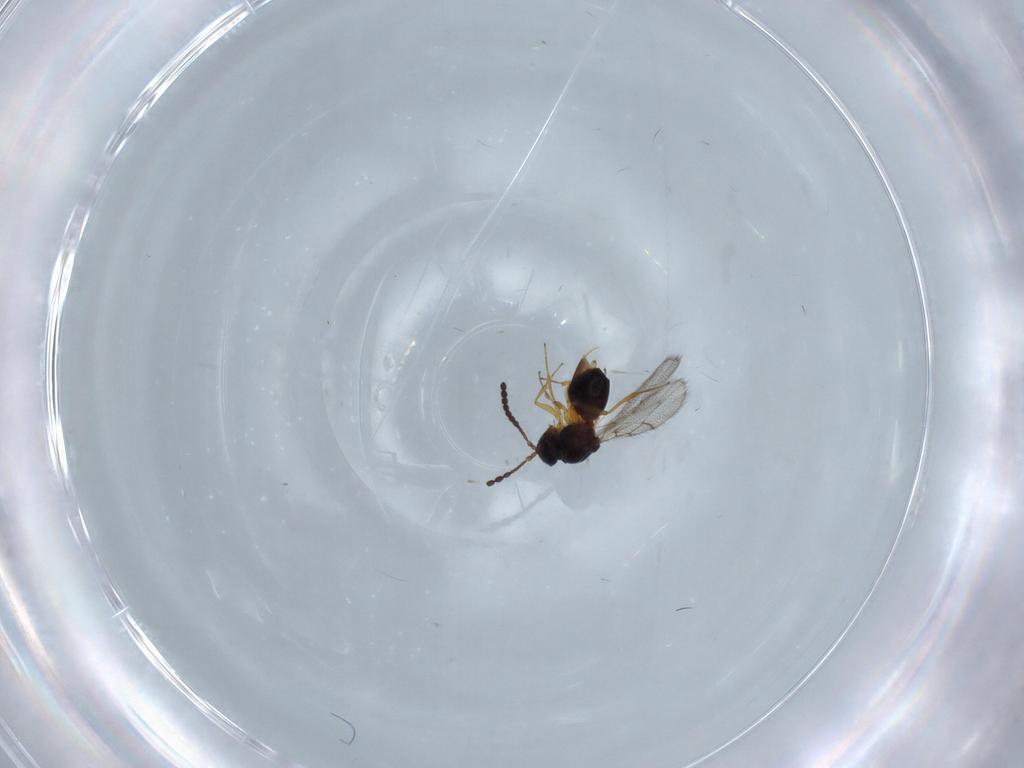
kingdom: Animalia
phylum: Arthropoda
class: Insecta
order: Hymenoptera
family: Figitidae
